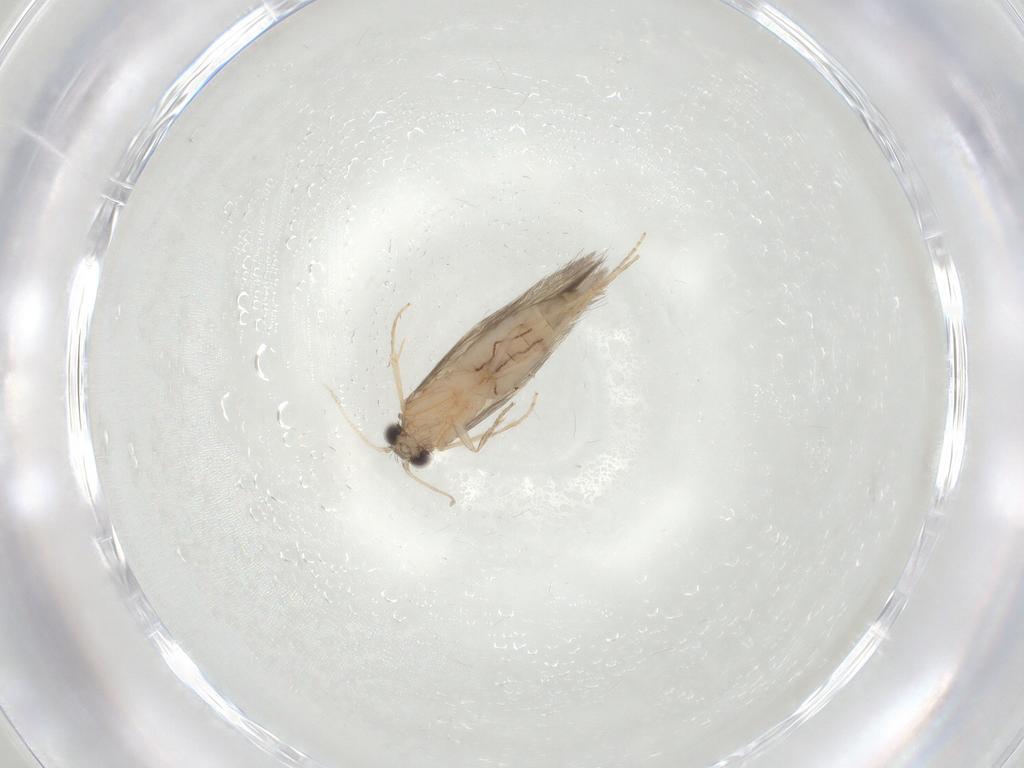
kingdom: Animalia
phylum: Arthropoda
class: Insecta
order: Trichoptera
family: Hydroptilidae
